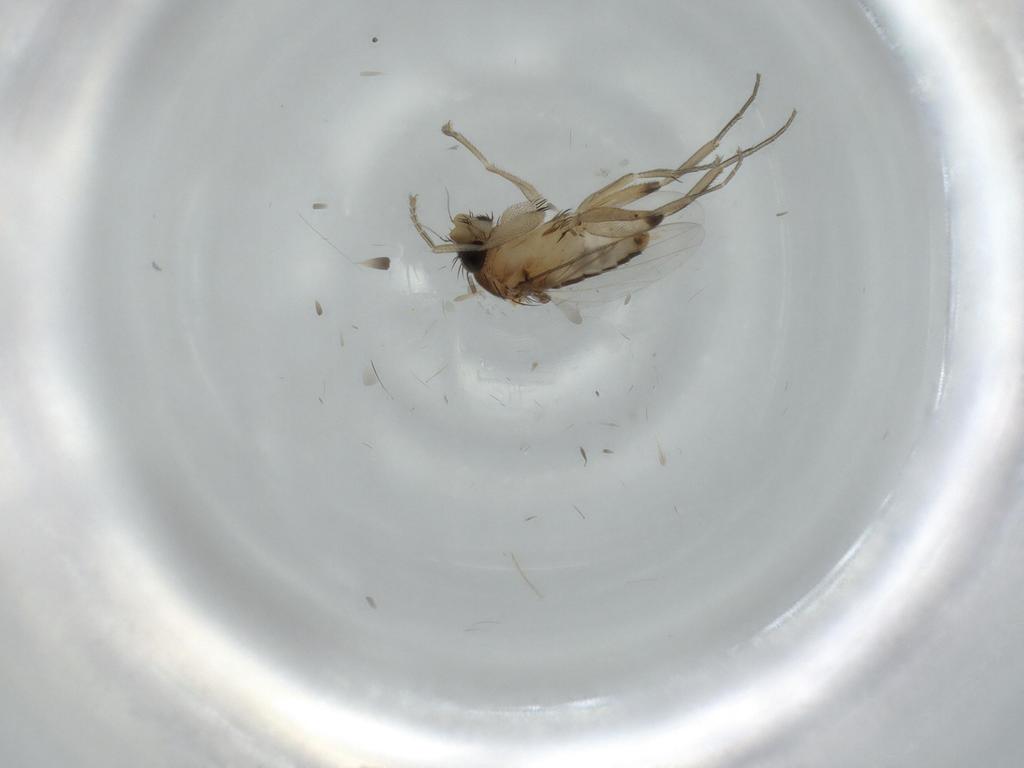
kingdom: Animalia
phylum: Arthropoda
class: Insecta
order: Diptera
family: Phoridae
